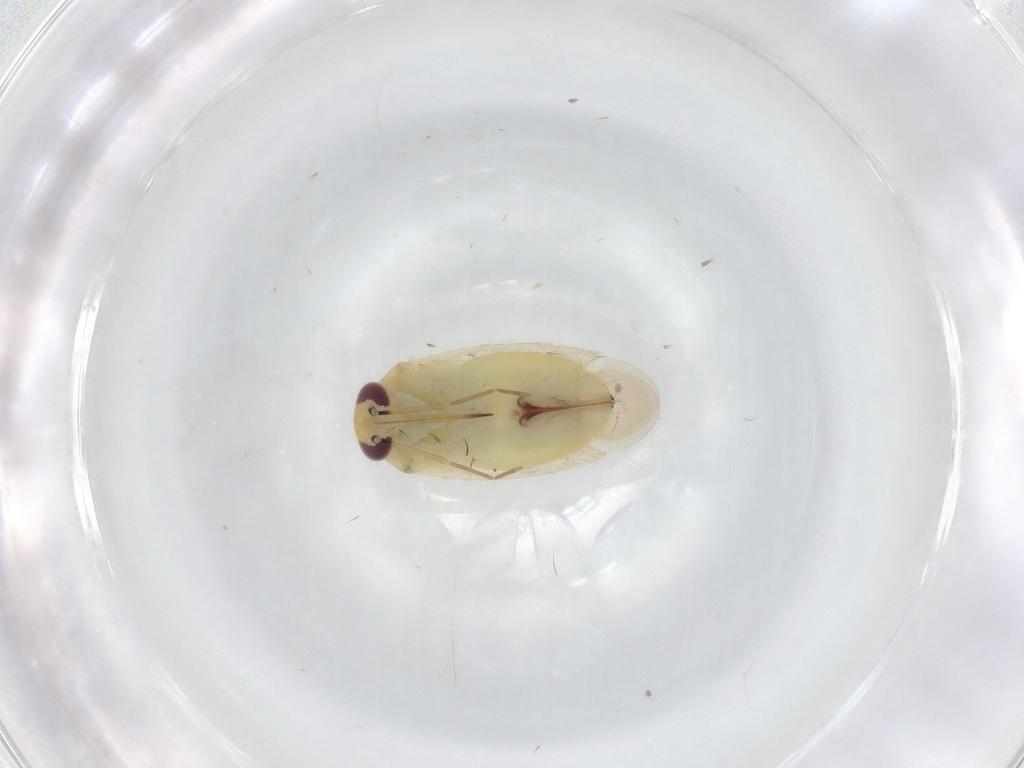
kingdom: Animalia
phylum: Arthropoda
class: Insecta
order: Hemiptera
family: Miridae
